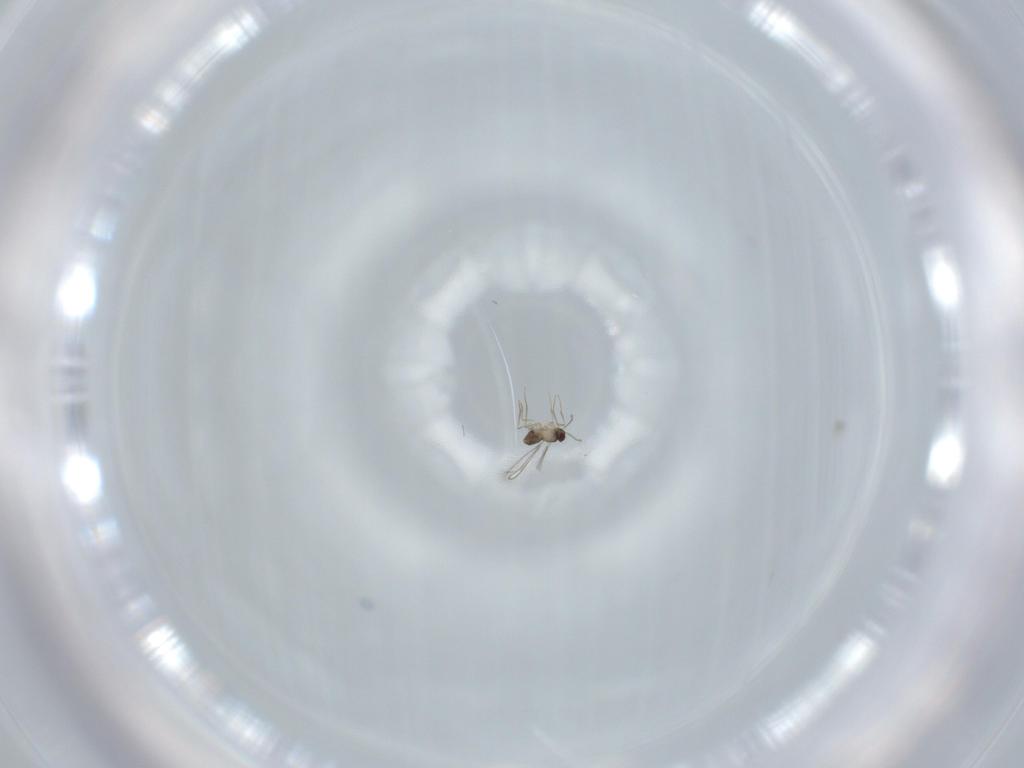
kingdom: Animalia
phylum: Arthropoda
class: Insecta
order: Hymenoptera
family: Mymaridae
